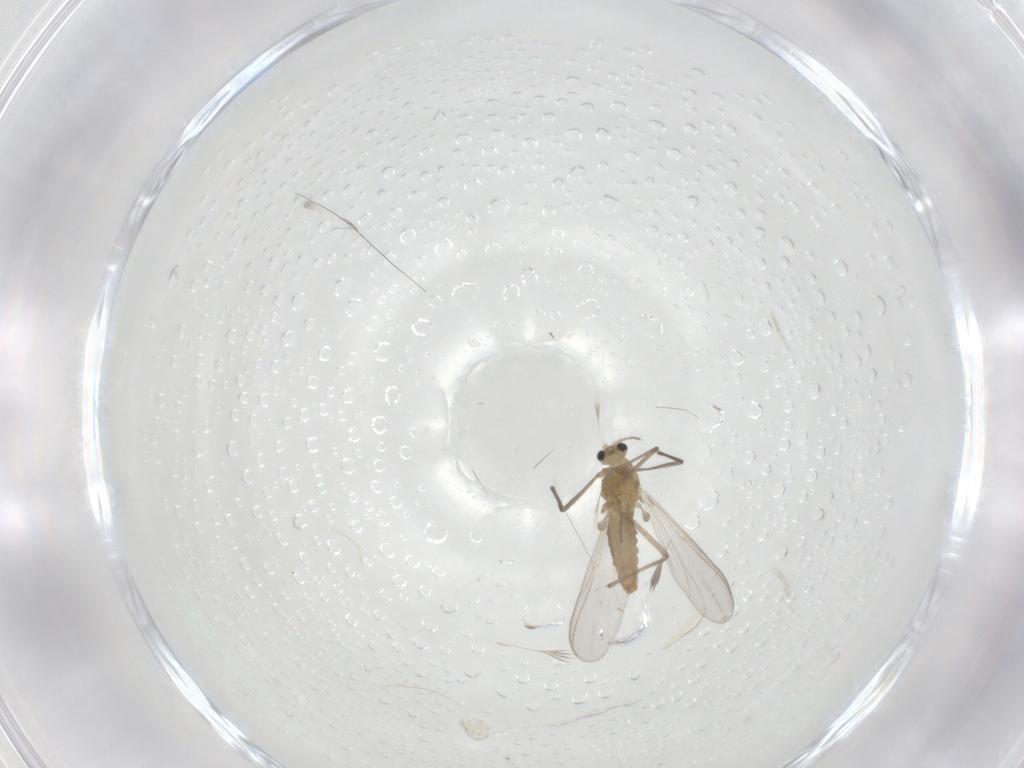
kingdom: Animalia
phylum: Arthropoda
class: Insecta
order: Diptera
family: Chironomidae
